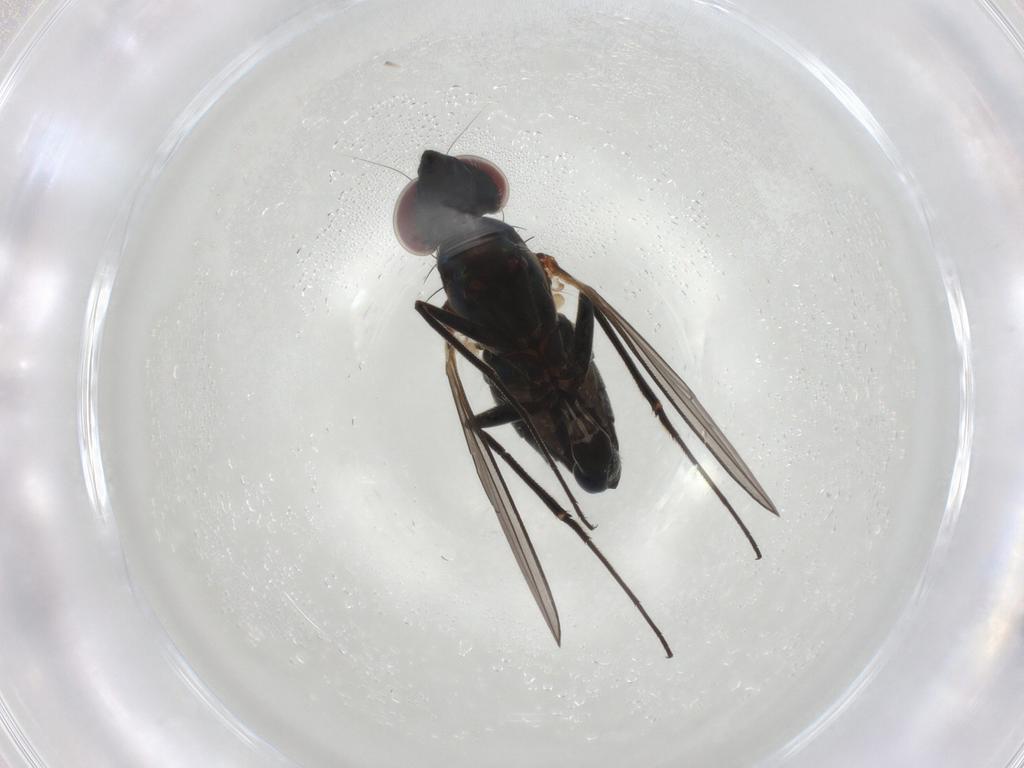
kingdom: Animalia
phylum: Arthropoda
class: Insecta
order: Diptera
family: Dolichopodidae
